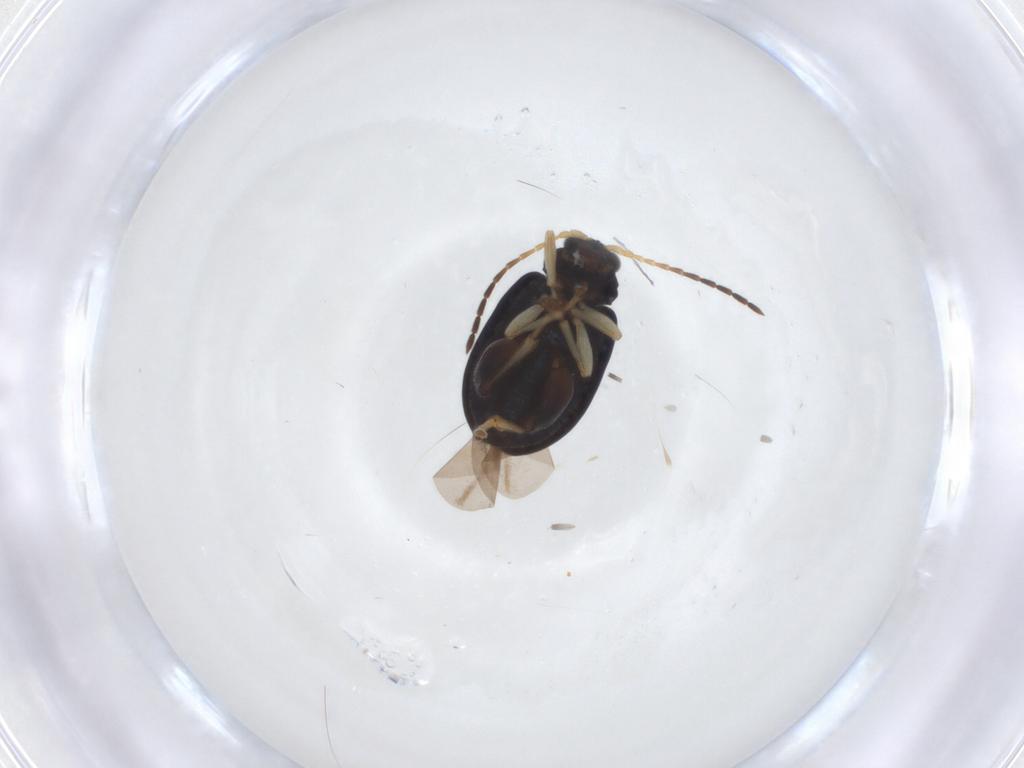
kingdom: Animalia
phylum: Arthropoda
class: Insecta
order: Coleoptera
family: Chrysomelidae
